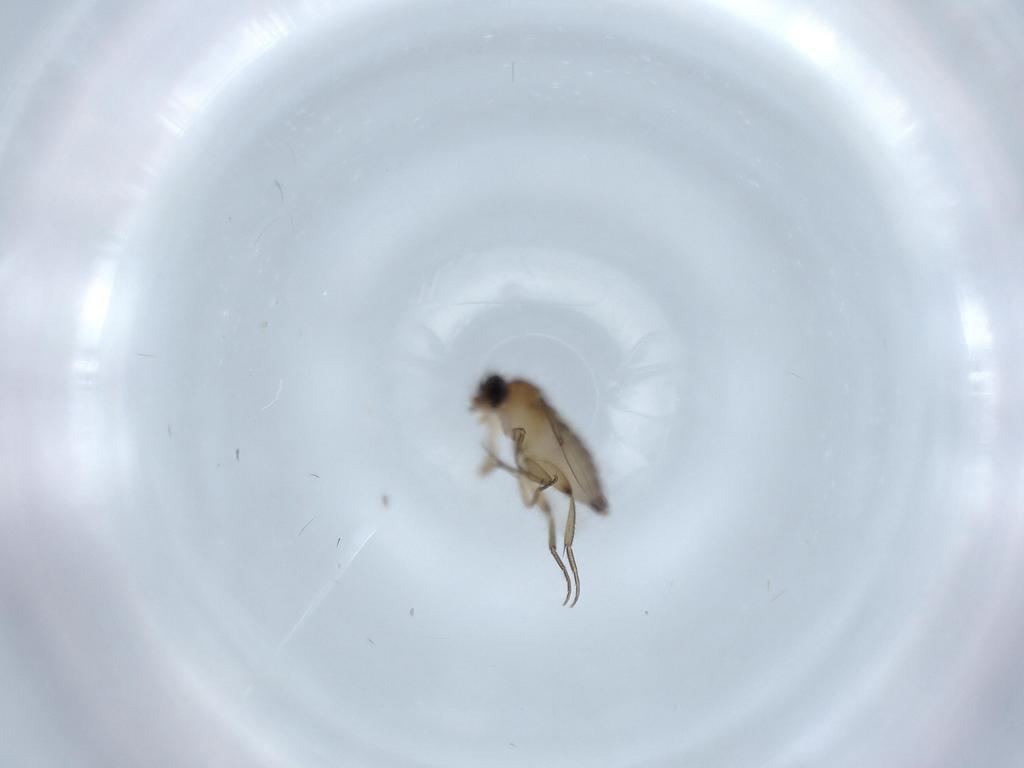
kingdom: Animalia
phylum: Arthropoda
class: Insecta
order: Diptera
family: Phoridae
